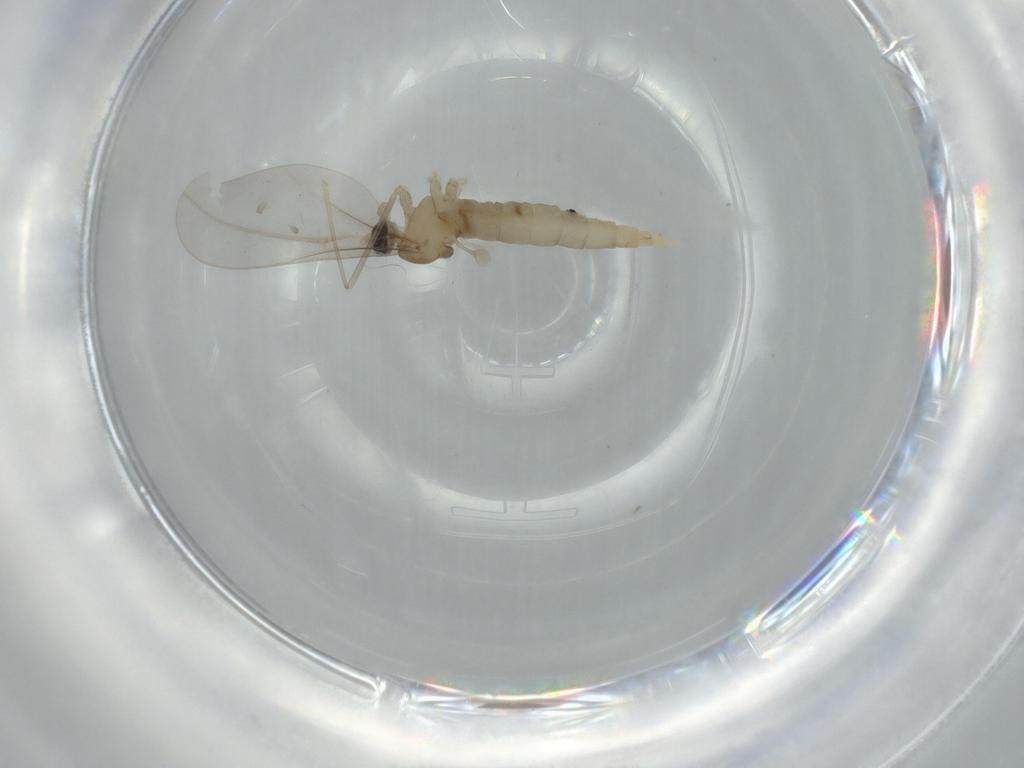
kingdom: Animalia
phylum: Arthropoda
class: Insecta
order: Diptera
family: Cecidomyiidae
